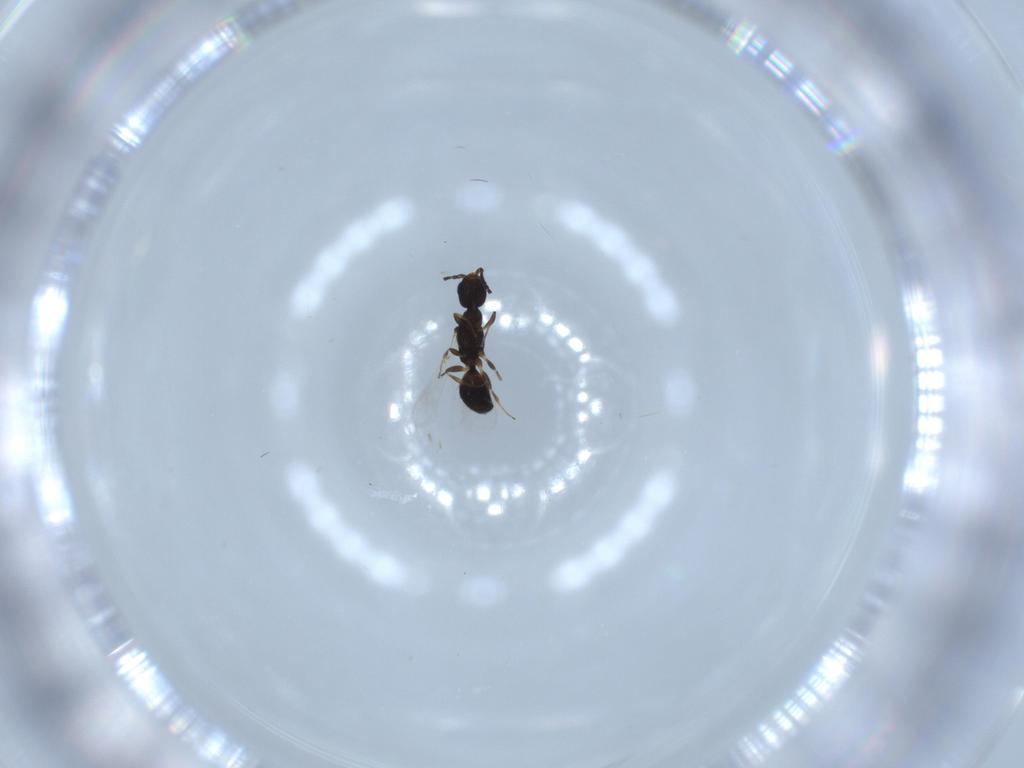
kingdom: Animalia
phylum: Arthropoda
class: Insecta
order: Hymenoptera
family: Bethylidae
